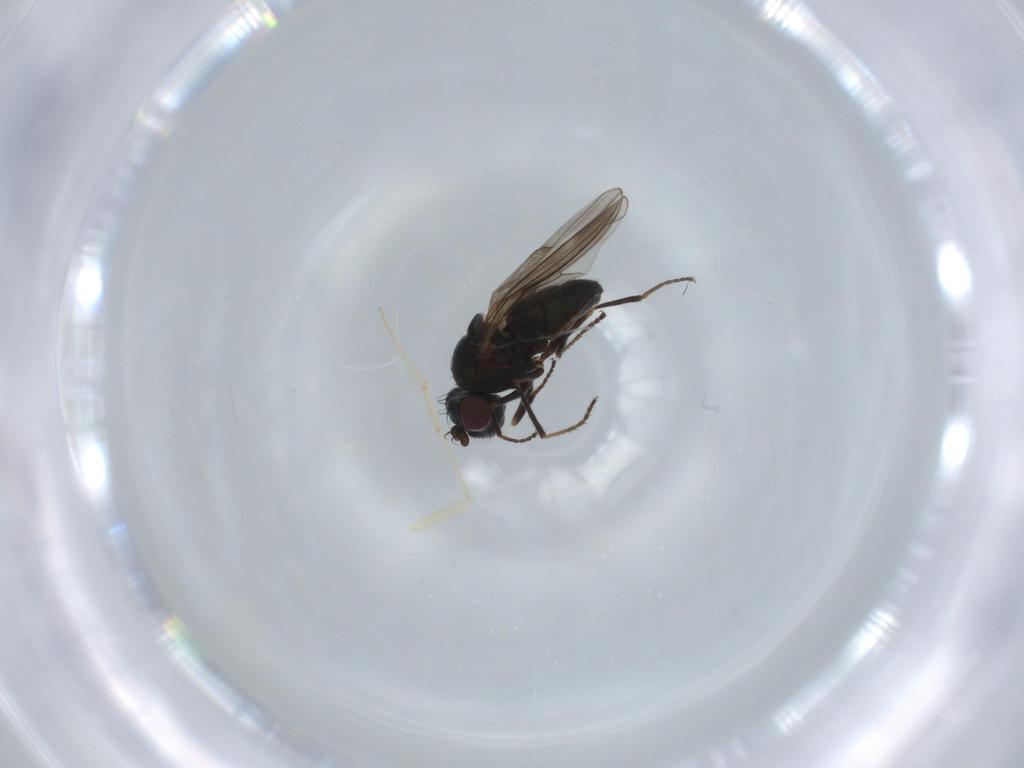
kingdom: Animalia
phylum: Arthropoda
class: Insecta
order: Diptera
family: Ephydridae
